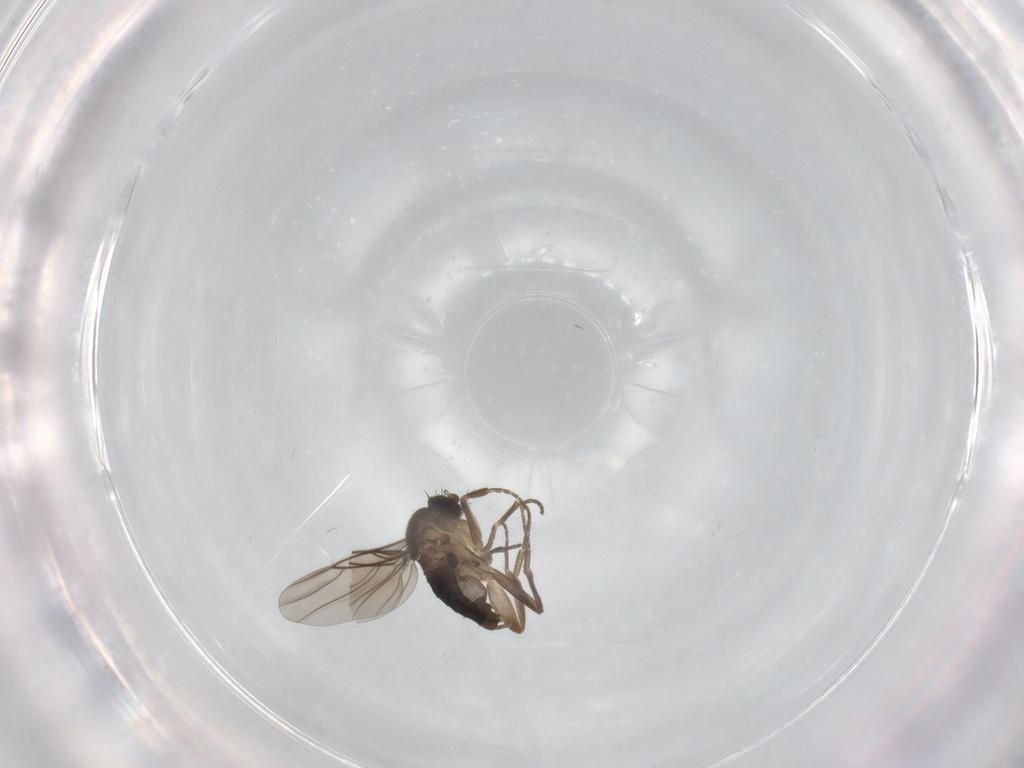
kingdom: Animalia
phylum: Arthropoda
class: Insecta
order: Diptera
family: Phoridae
